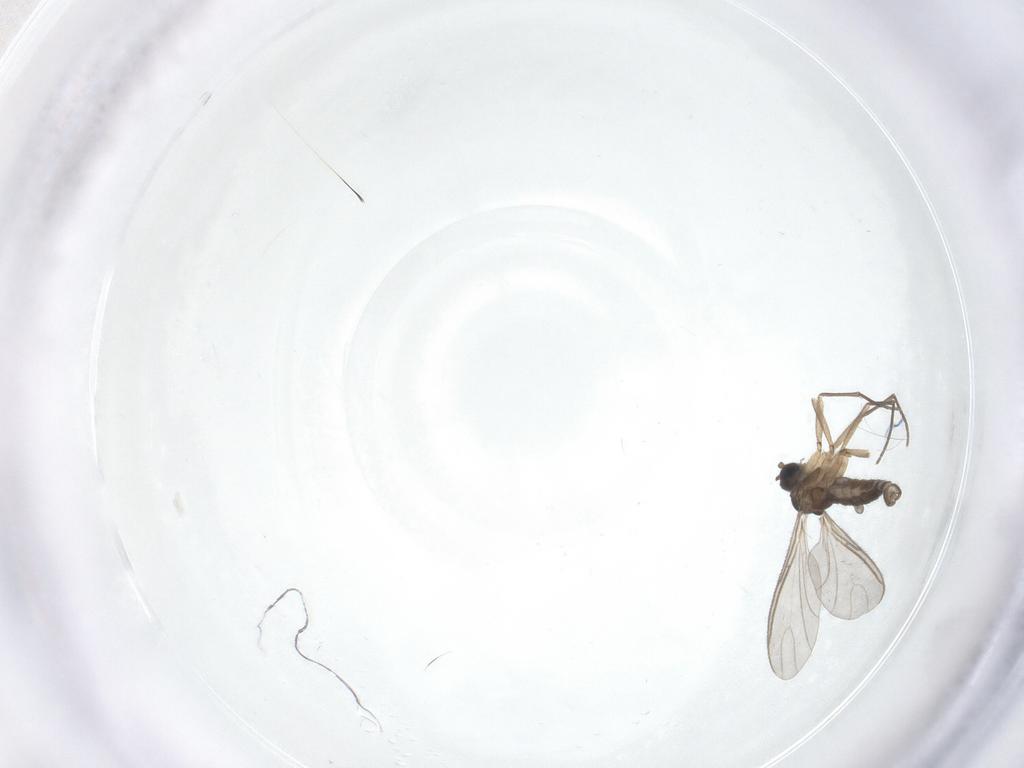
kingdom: Animalia
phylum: Arthropoda
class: Insecta
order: Diptera
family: Sciaridae
